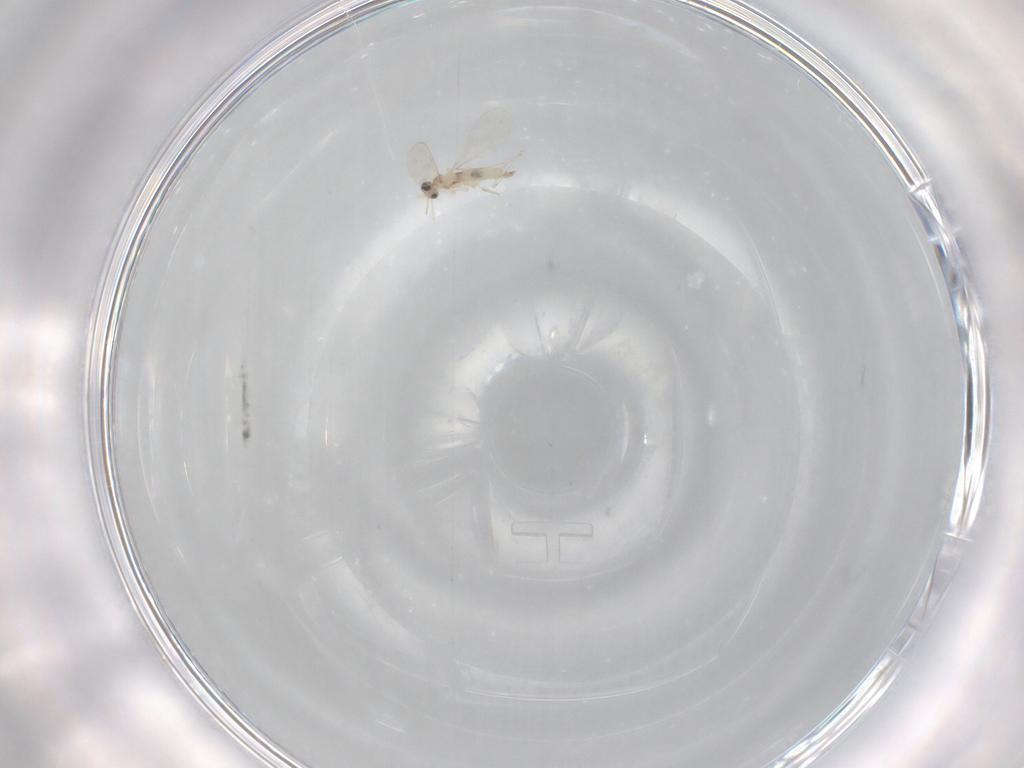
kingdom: Animalia
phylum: Arthropoda
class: Insecta
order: Diptera
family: Cecidomyiidae
